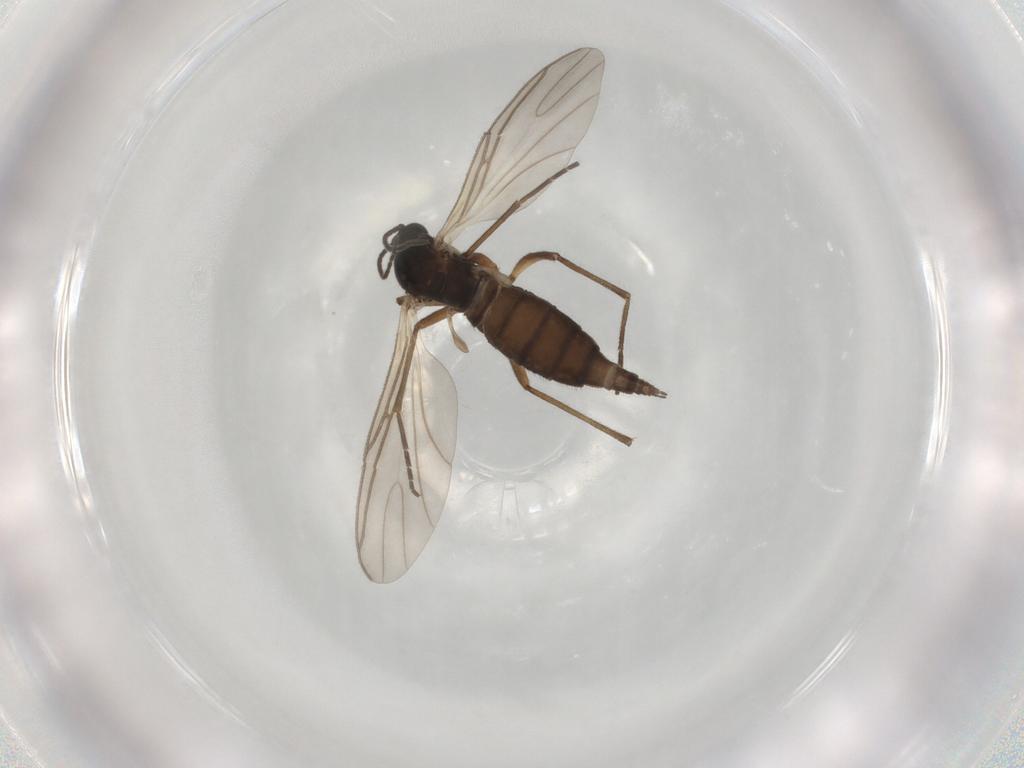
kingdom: Animalia
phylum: Arthropoda
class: Insecta
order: Diptera
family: Sciaridae
